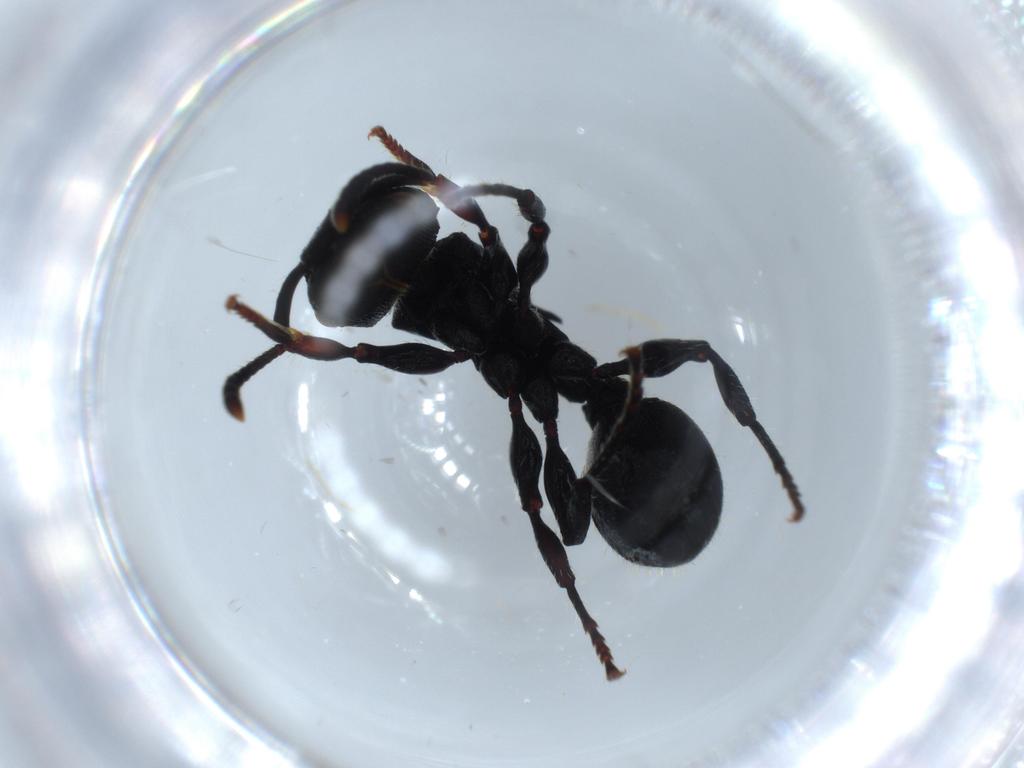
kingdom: Animalia
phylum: Arthropoda
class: Insecta
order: Hymenoptera
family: Formicidae
